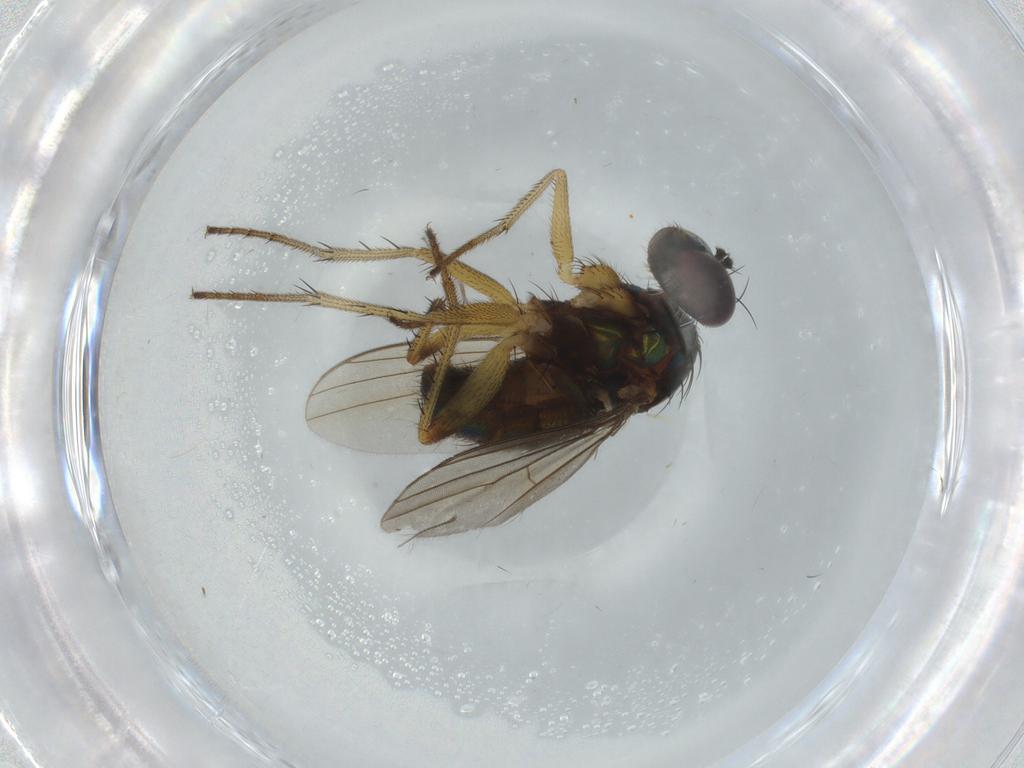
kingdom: Animalia
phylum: Arthropoda
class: Insecta
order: Diptera
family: Dolichopodidae
